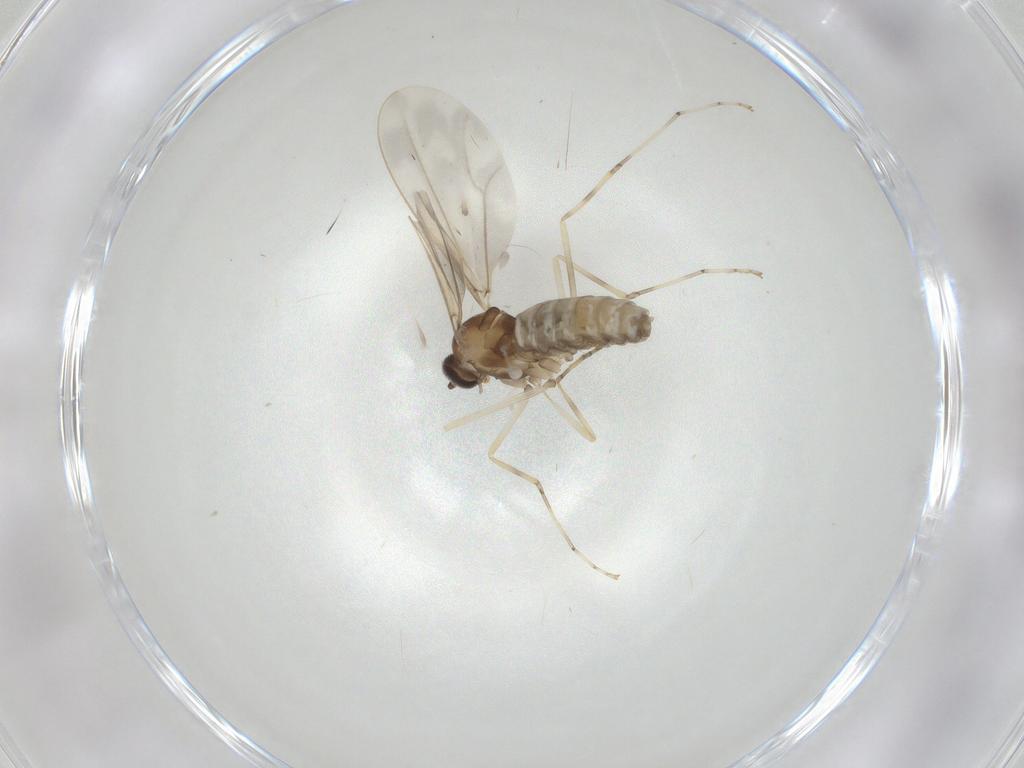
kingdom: Animalia
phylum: Arthropoda
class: Insecta
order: Diptera
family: Cecidomyiidae
